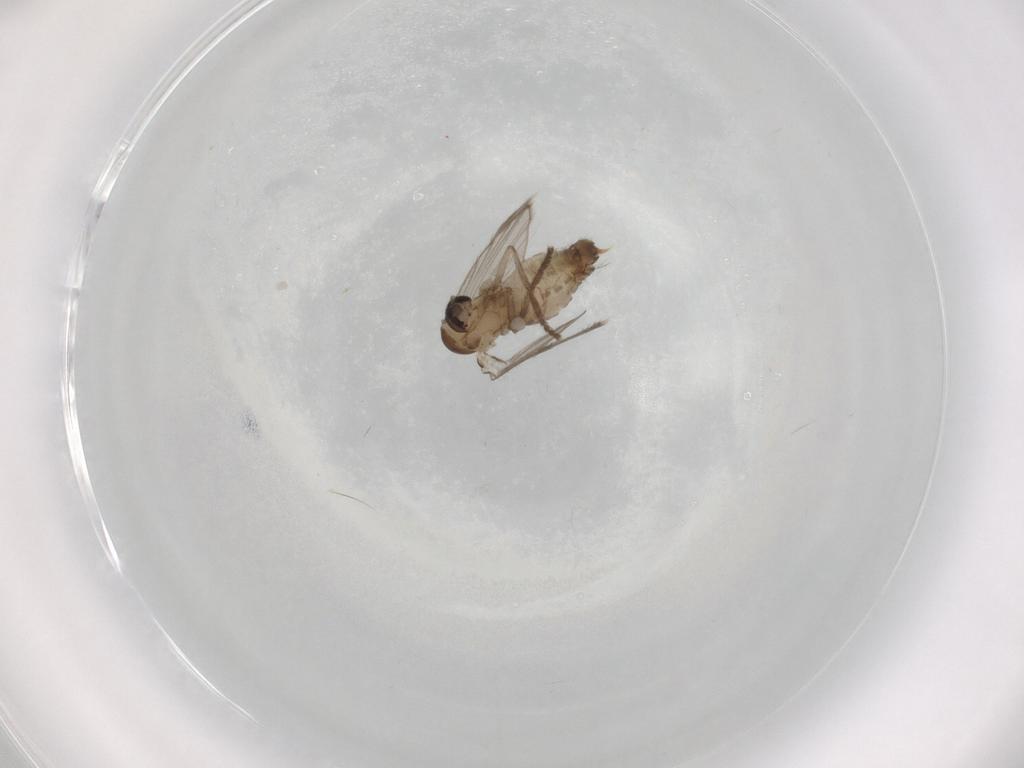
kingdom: Animalia
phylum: Arthropoda
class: Insecta
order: Diptera
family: Psychodidae
